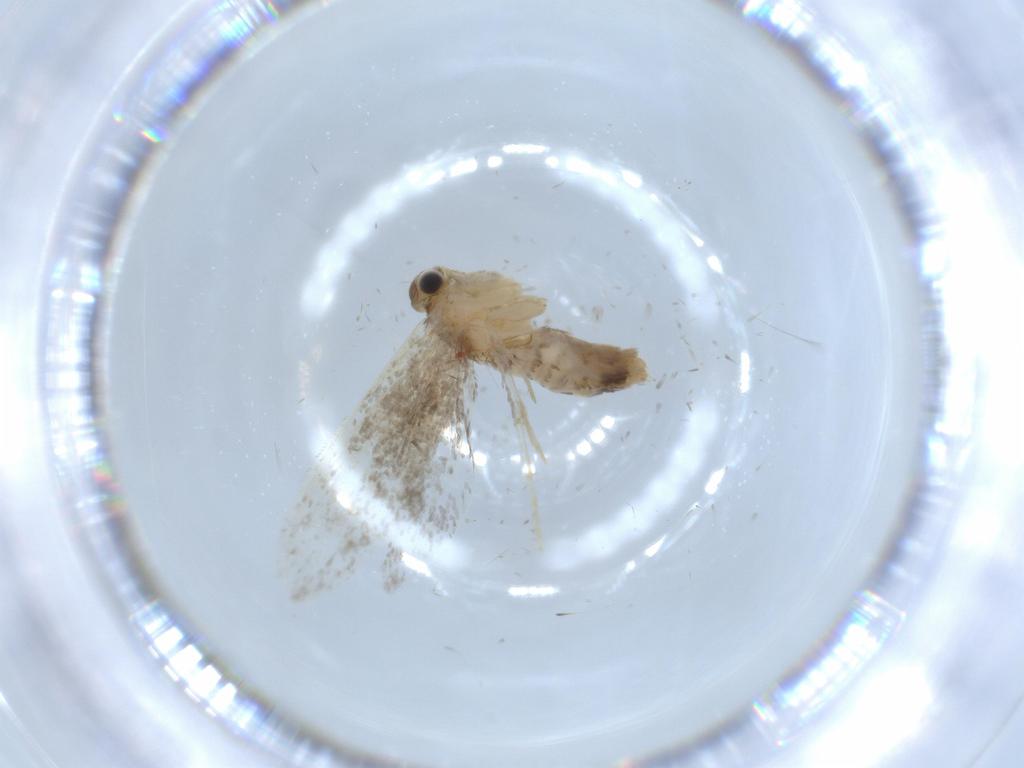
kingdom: Animalia
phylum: Arthropoda
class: Insecta
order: Lepidoptera
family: Tineidae
